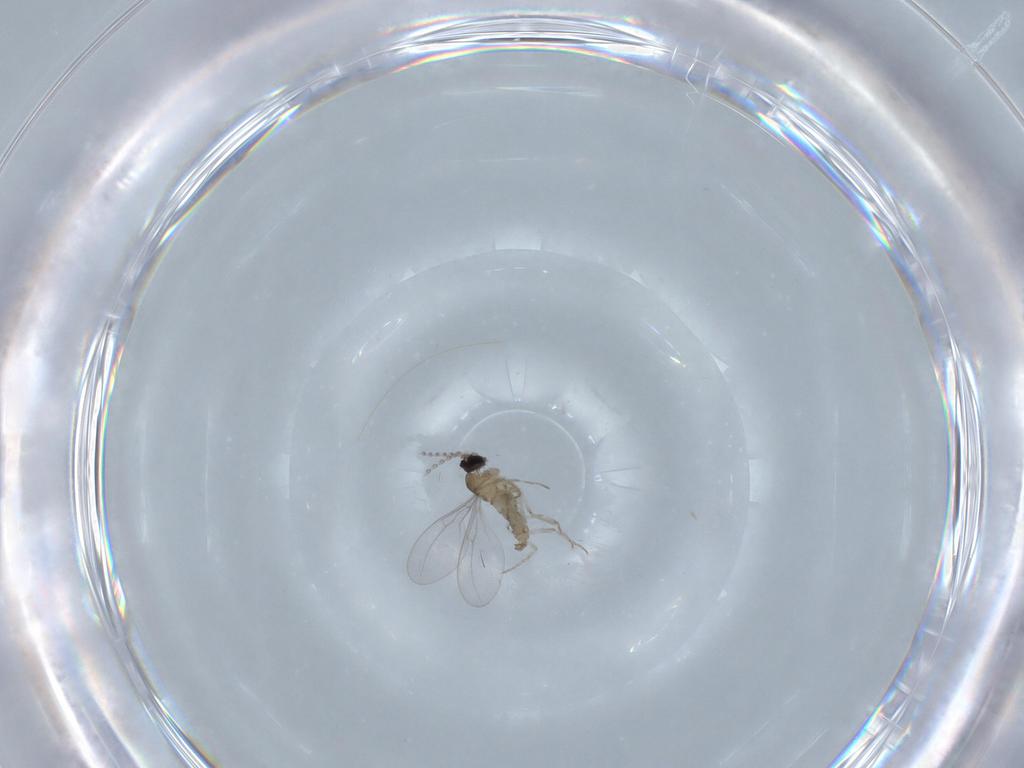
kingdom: Animalia
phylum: Arthropoda
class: Insecta
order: Diptera
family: Cecidomyiidae
